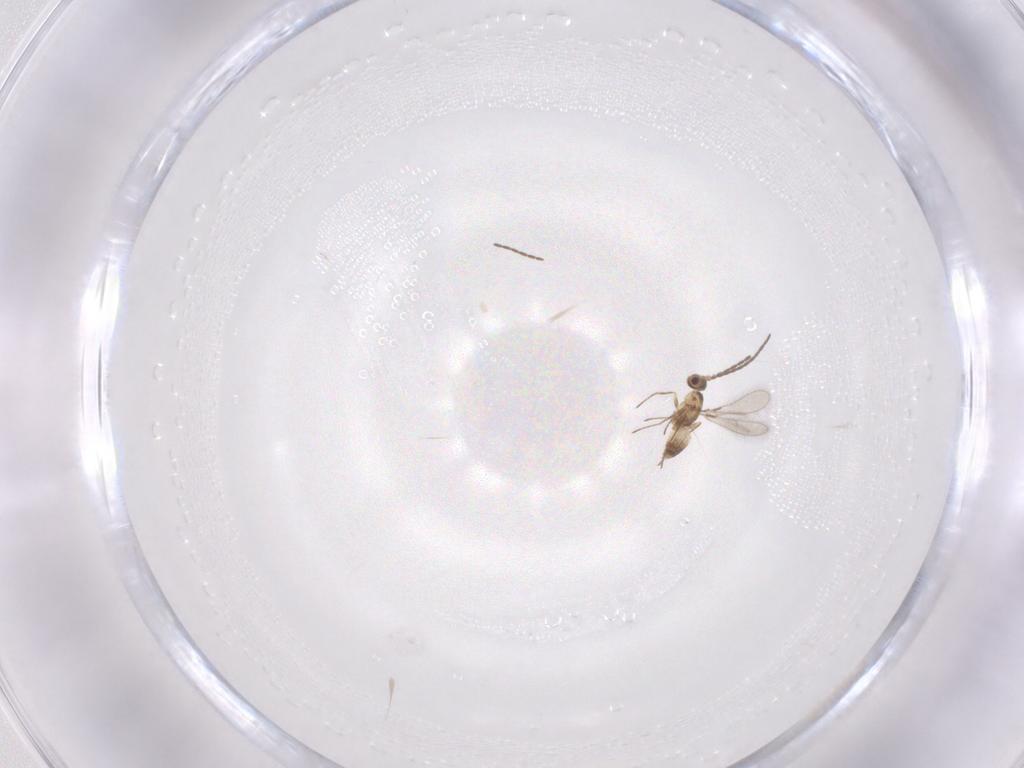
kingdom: Animalia
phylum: Arthropoda
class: Insecta
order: Hymenoptera
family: Mymaridae
